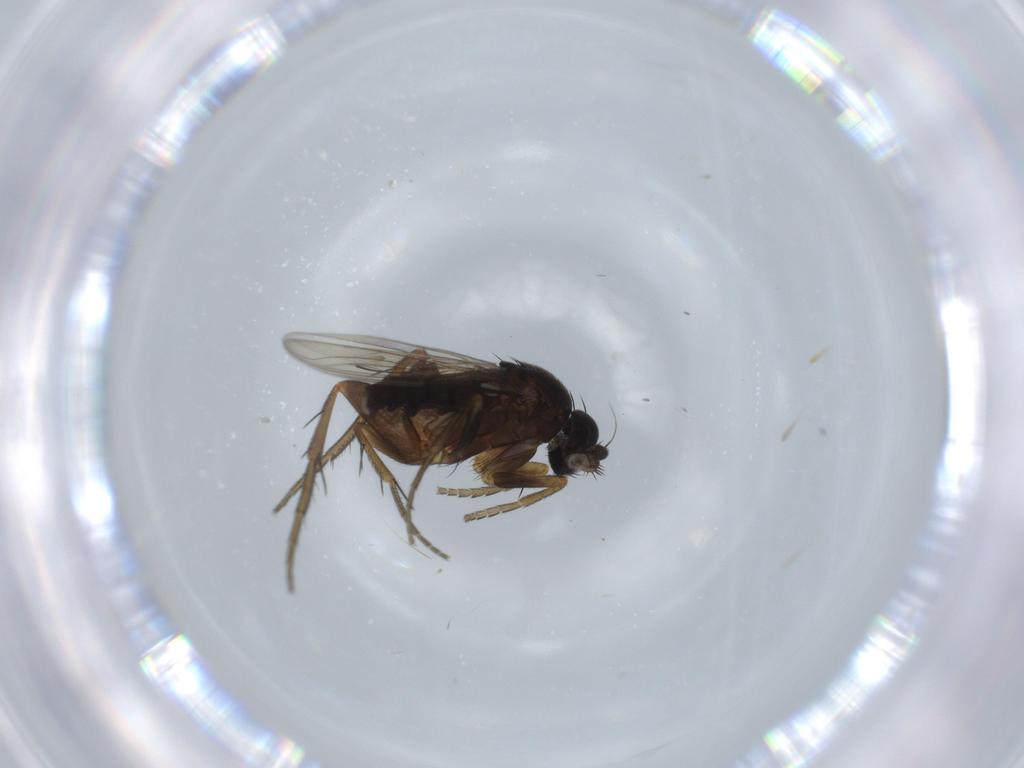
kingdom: Animalia
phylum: Arthropoda
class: Insecta
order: Diptera
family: Phoridae
